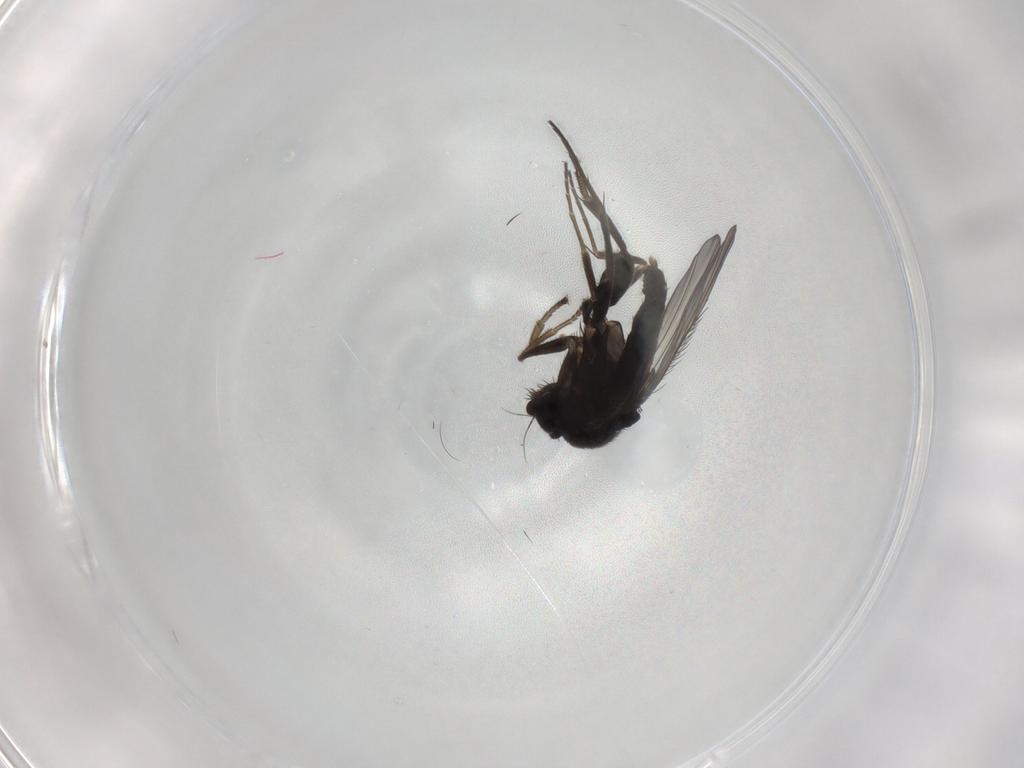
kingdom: Animalia
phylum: Arthropoda
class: Insecta
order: Diptera
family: Phoridae
